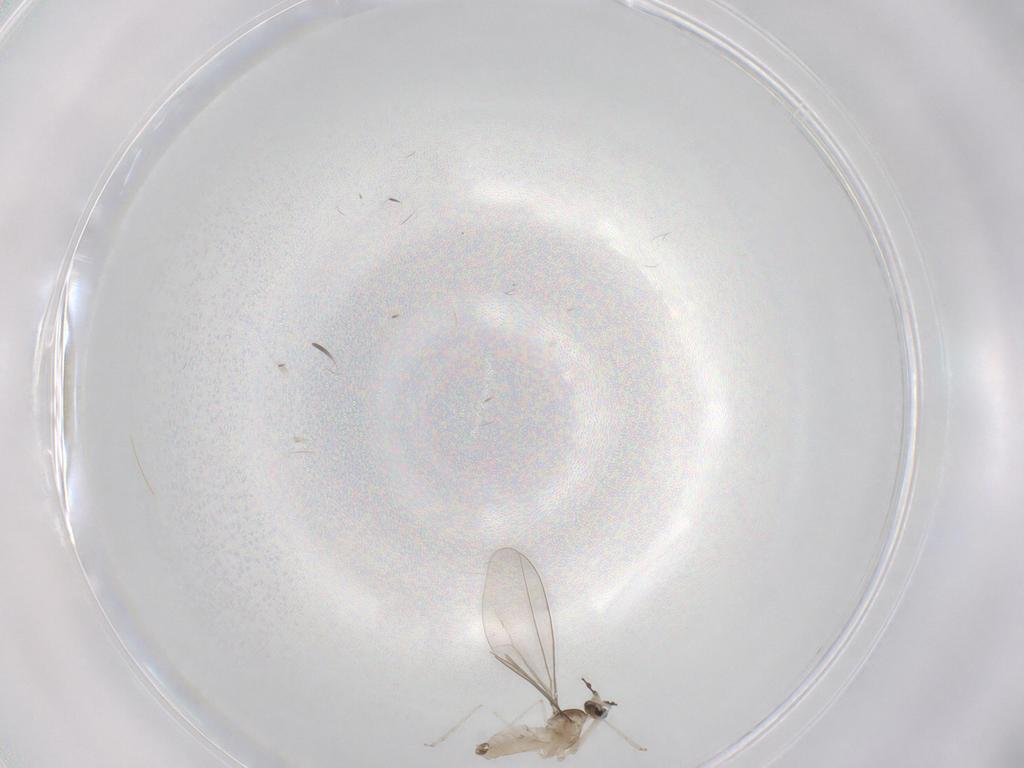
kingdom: Animalia
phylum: Arthropoda
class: Insecta
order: Diptera
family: Cecidomyiidae
